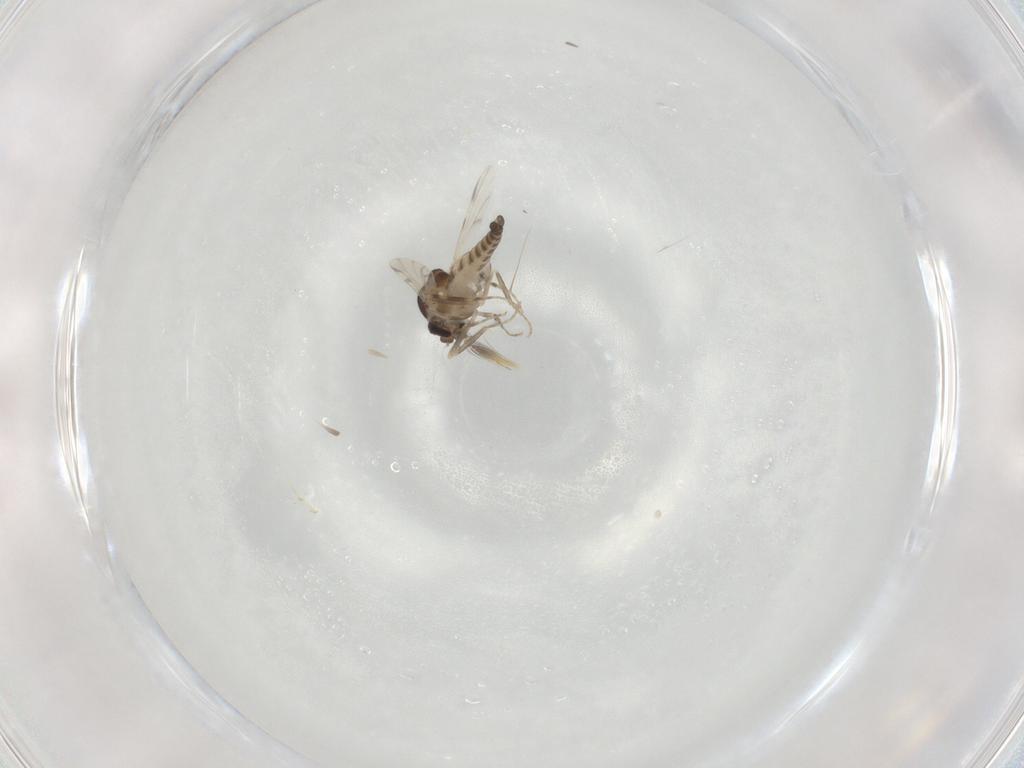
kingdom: Animalia
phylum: Arthropoda
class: Insecta
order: Diptera
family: Ceratopogonidae
